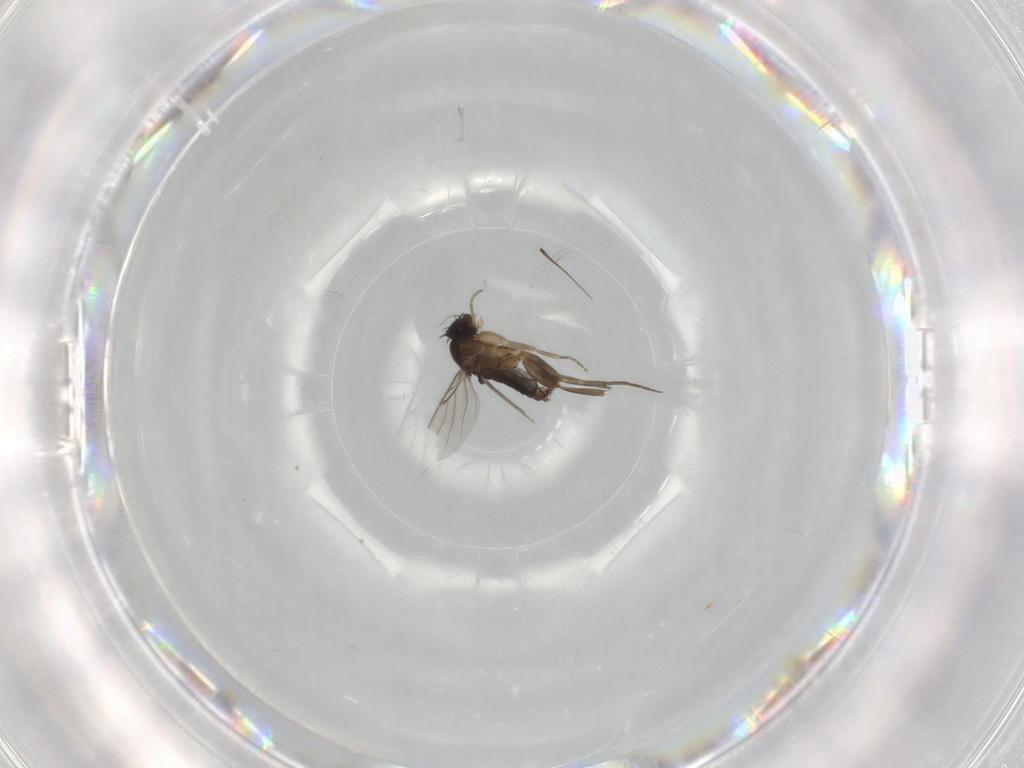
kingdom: Animalia
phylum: Arthropoda
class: Insecta
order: Diptera
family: Phoridae
